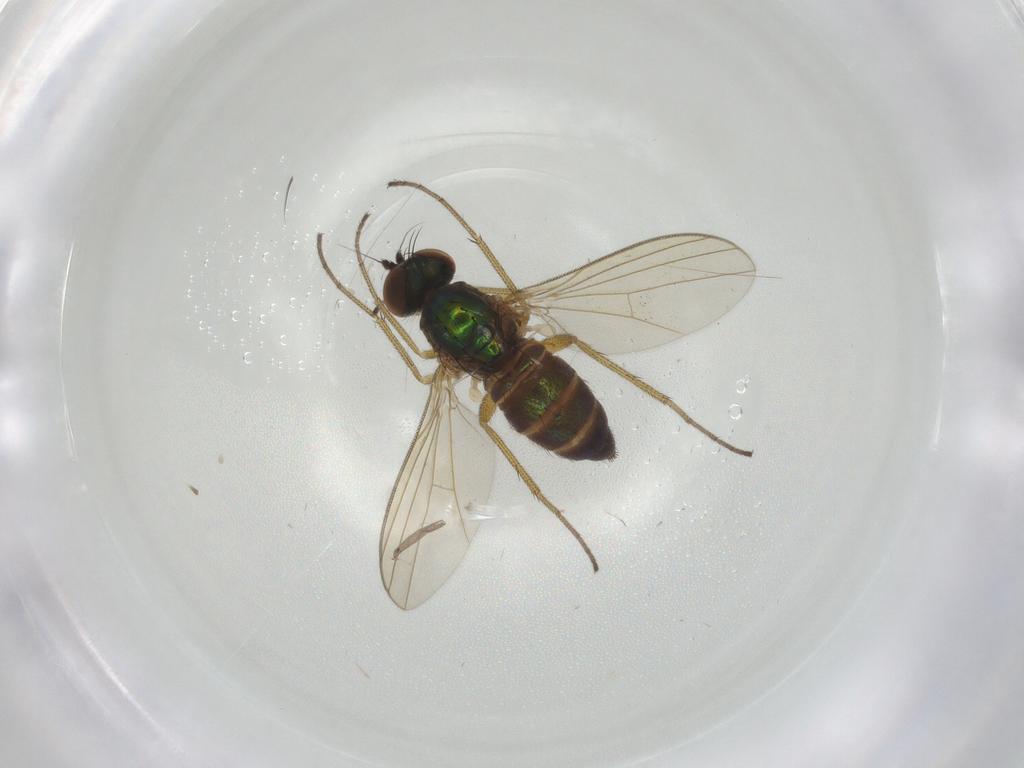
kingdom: Animalia
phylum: Arthropoda
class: Insecta
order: Diptera
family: Dolichopodidae
